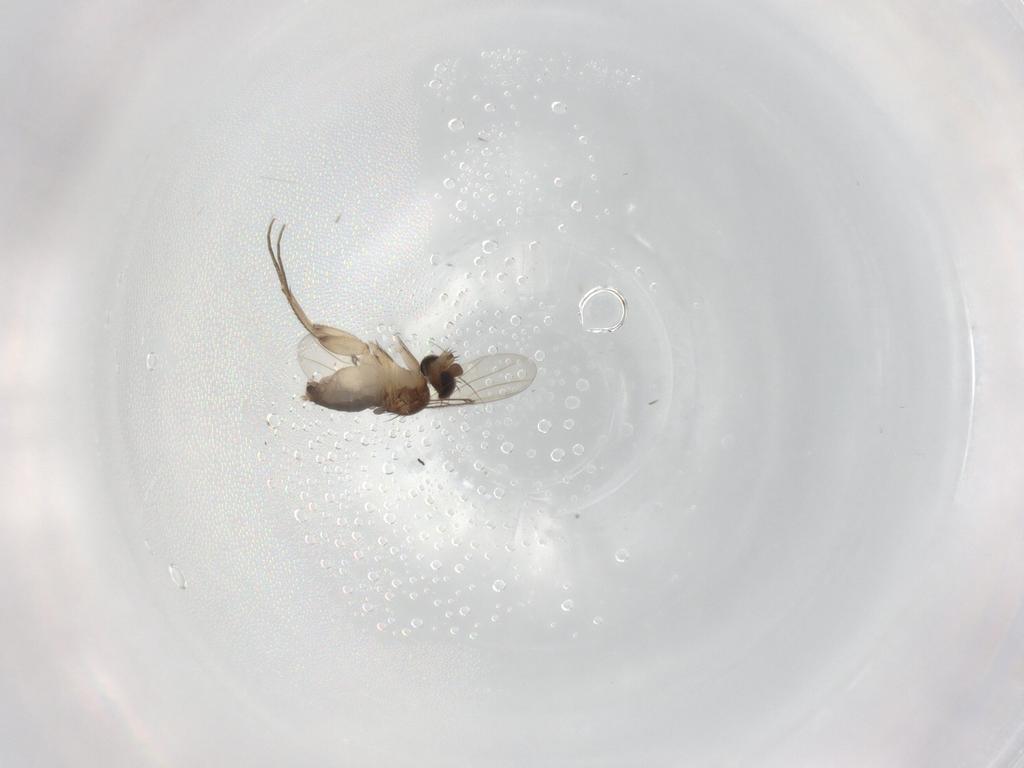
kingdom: Animalia
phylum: Arthropoda
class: Insecta
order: Diptera
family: Phoridae
